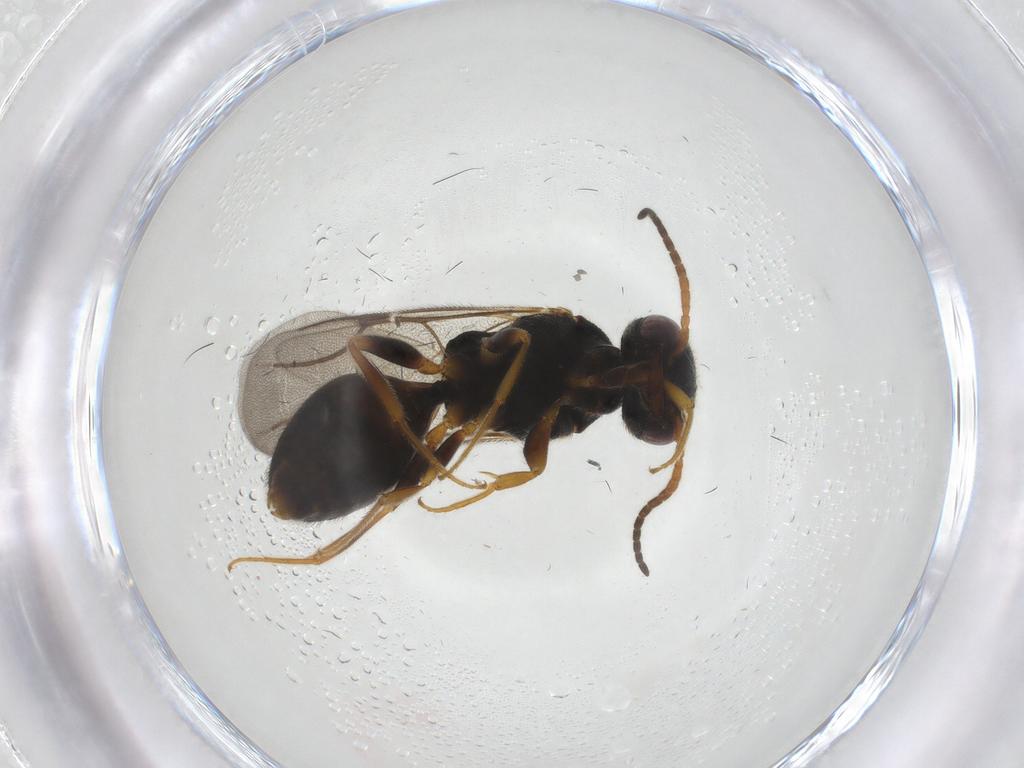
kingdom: Animalia
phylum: Arthropoda
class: Insecta
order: Hymenoptera
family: Bethylidae
